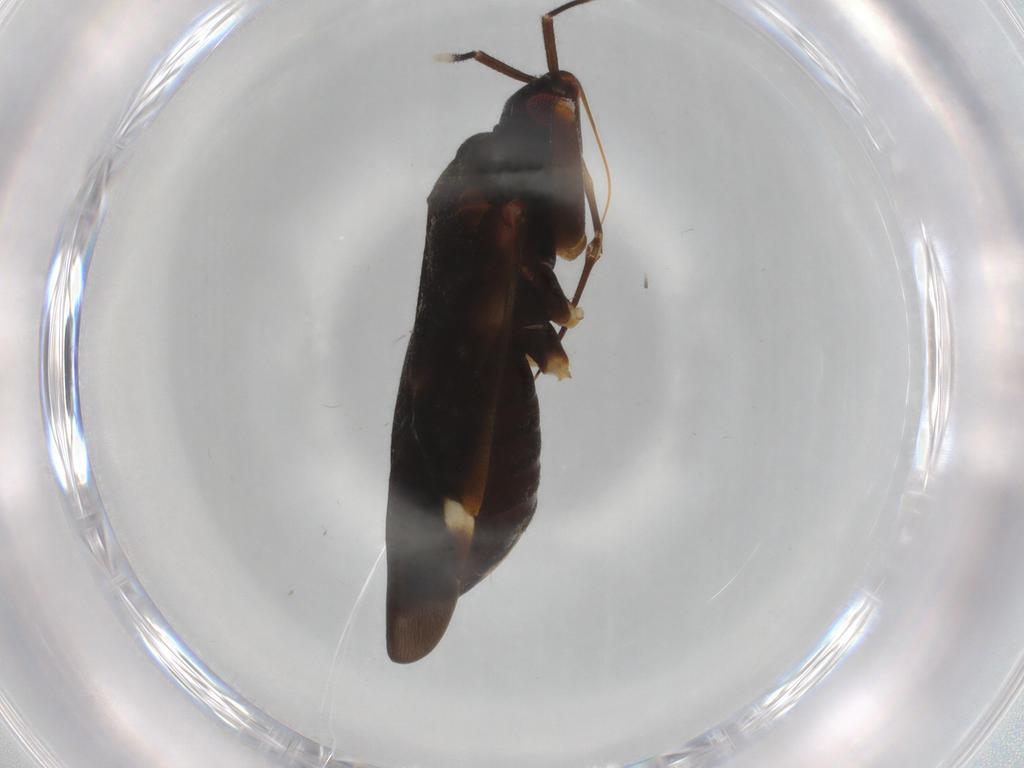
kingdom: Animalia
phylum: Arthropoda
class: Insecta
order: Hemiptera
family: Miridae
